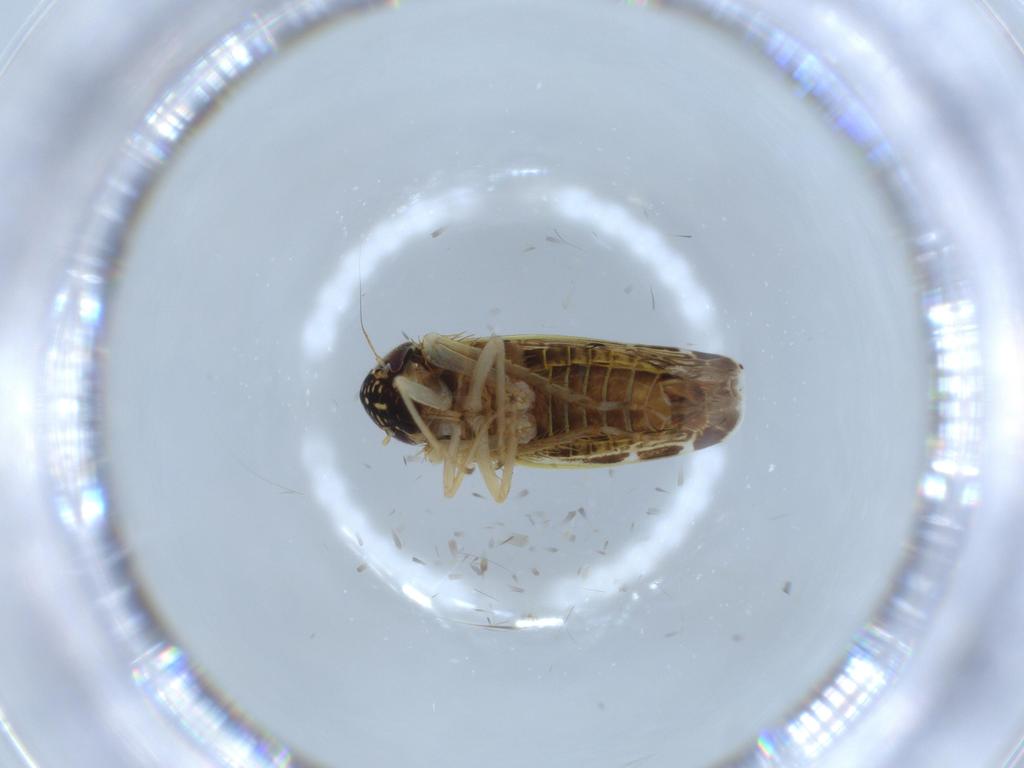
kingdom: Animalia
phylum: Arthropoda
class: Insecta
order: Hemiptera
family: Cicadellidae
